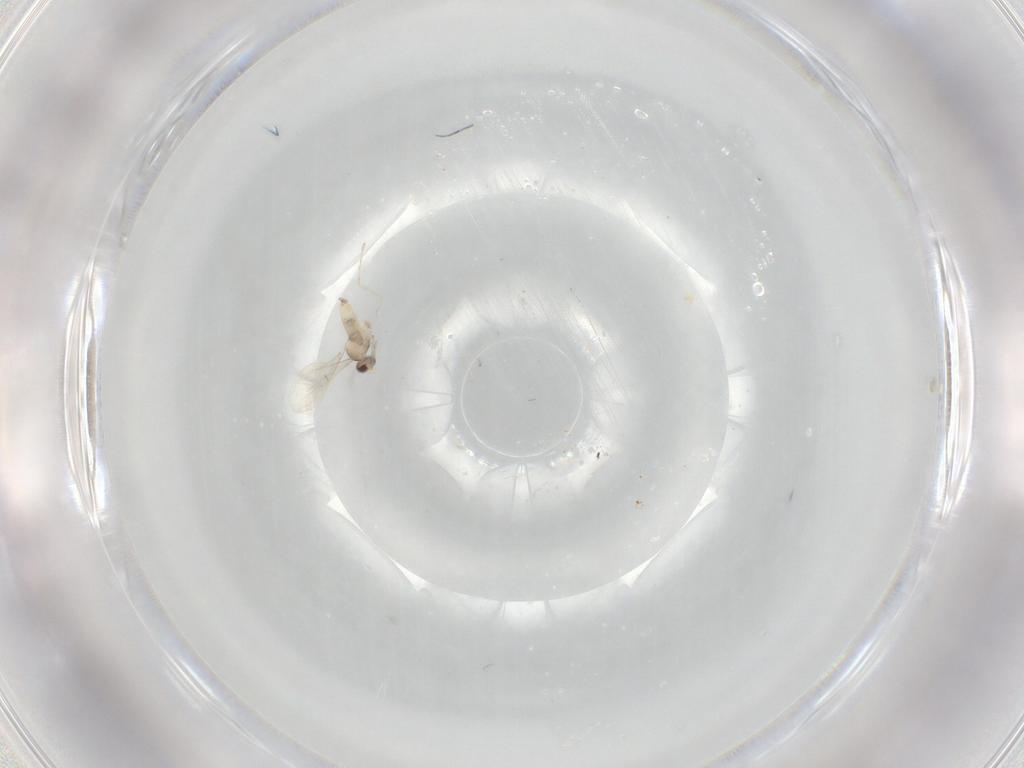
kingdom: Animalia
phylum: Arthropoda
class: Insecta
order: Diptera
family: Cecidomyiidae
